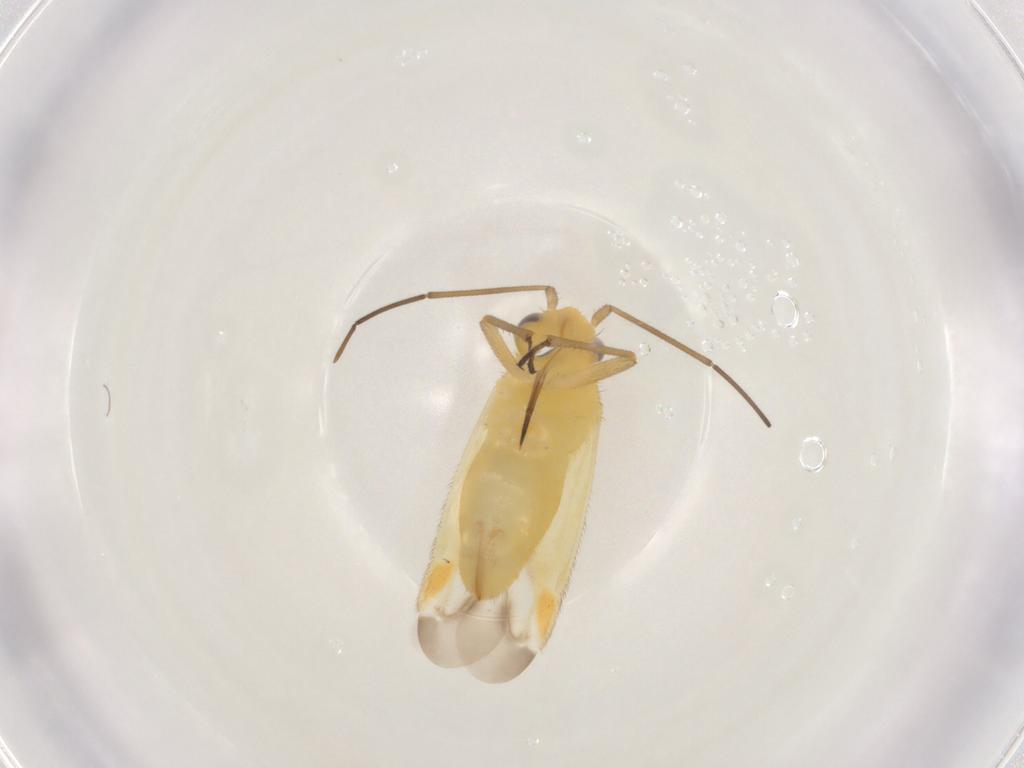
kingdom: Animalia
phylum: Arthropoda
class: Insecta
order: Hemiptera
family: Lygaeidae
